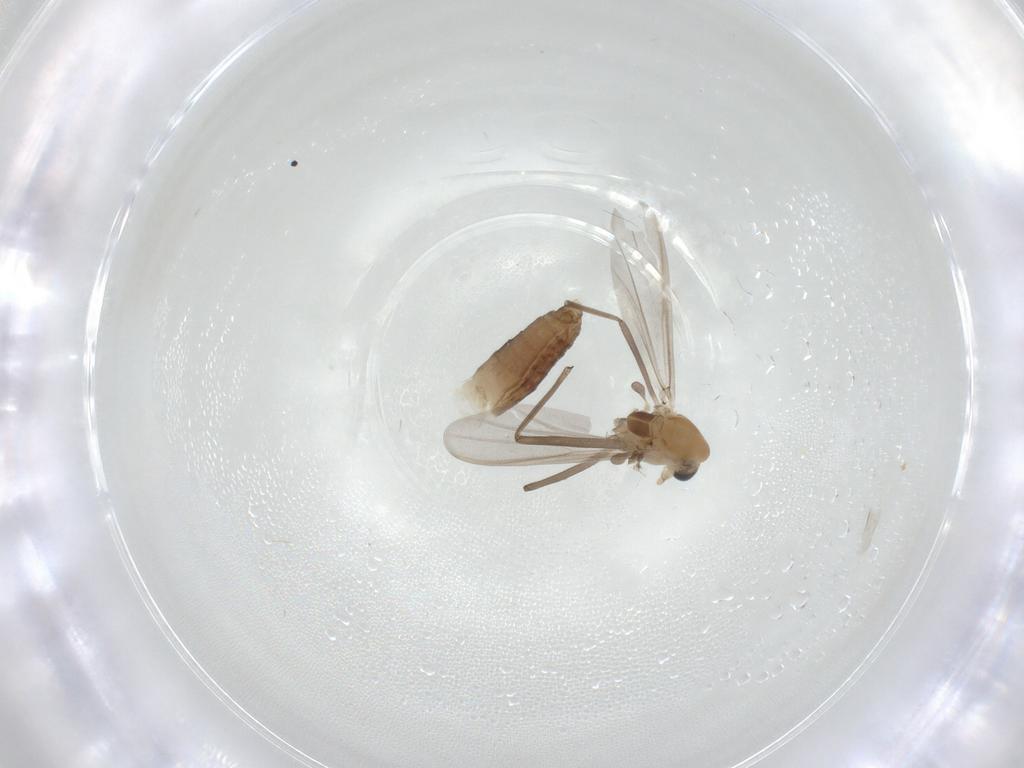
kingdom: Animalia
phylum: Arthropoda
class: Insecta
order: Diptera
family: Chironomidae
